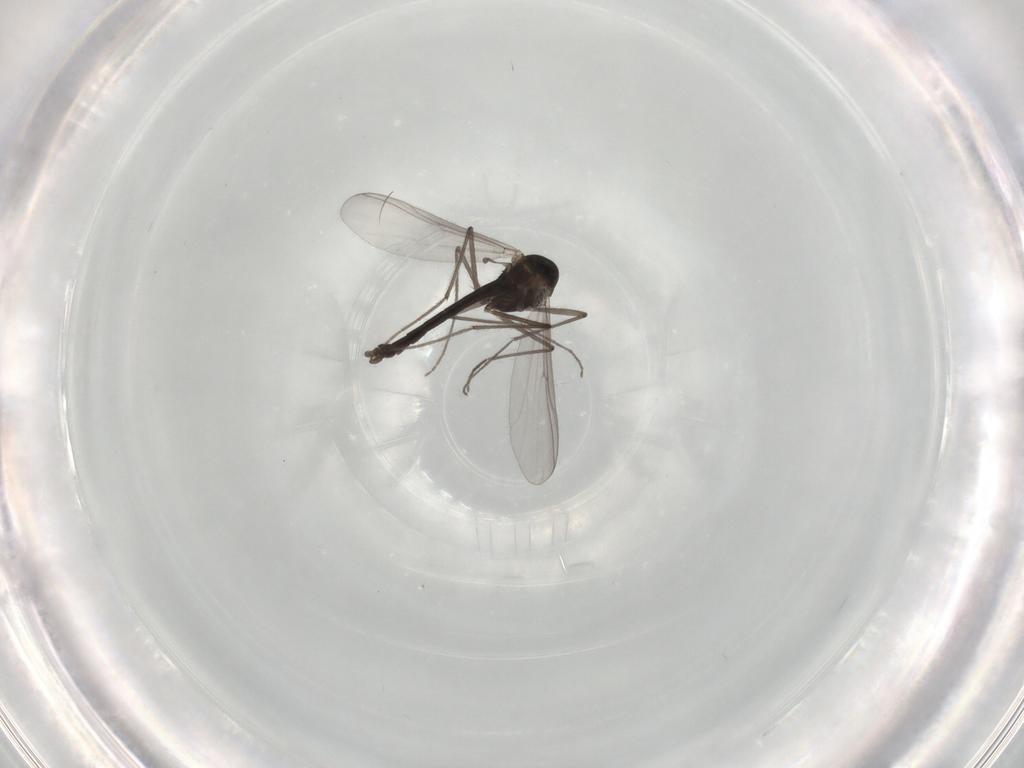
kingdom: Animalia
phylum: Arthropoda
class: Insecta
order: Diptera
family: Chironomidae
